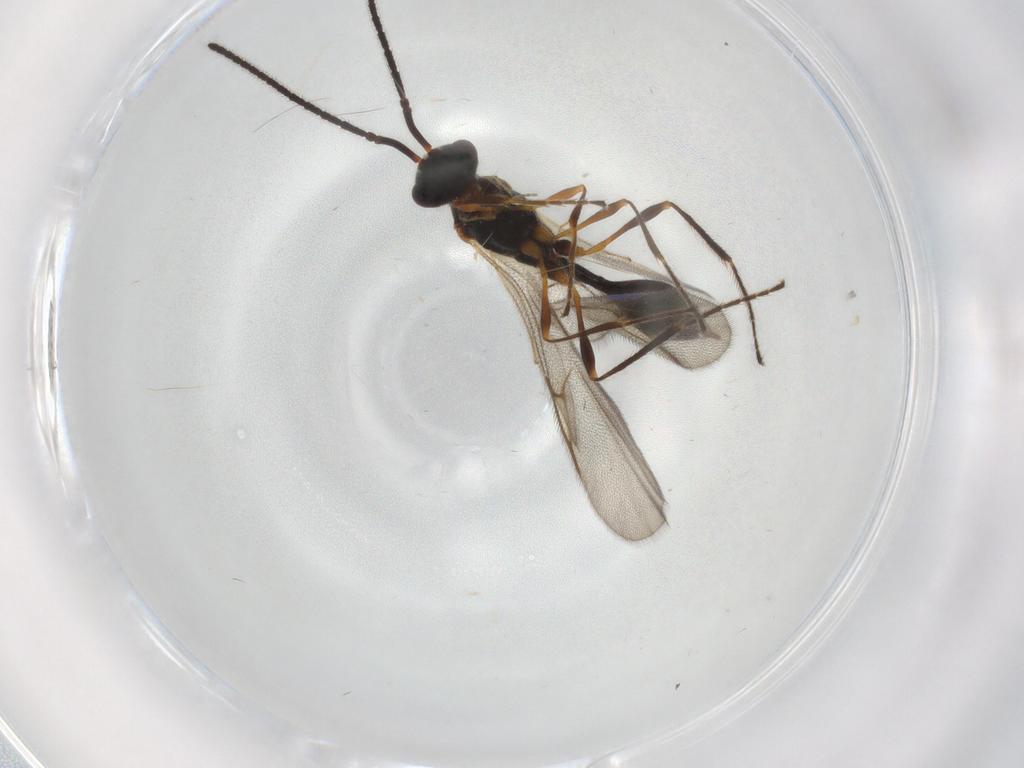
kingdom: Animalia
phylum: Arthropoda
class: Insecta
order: Hymenoptera
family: Diapriidae
